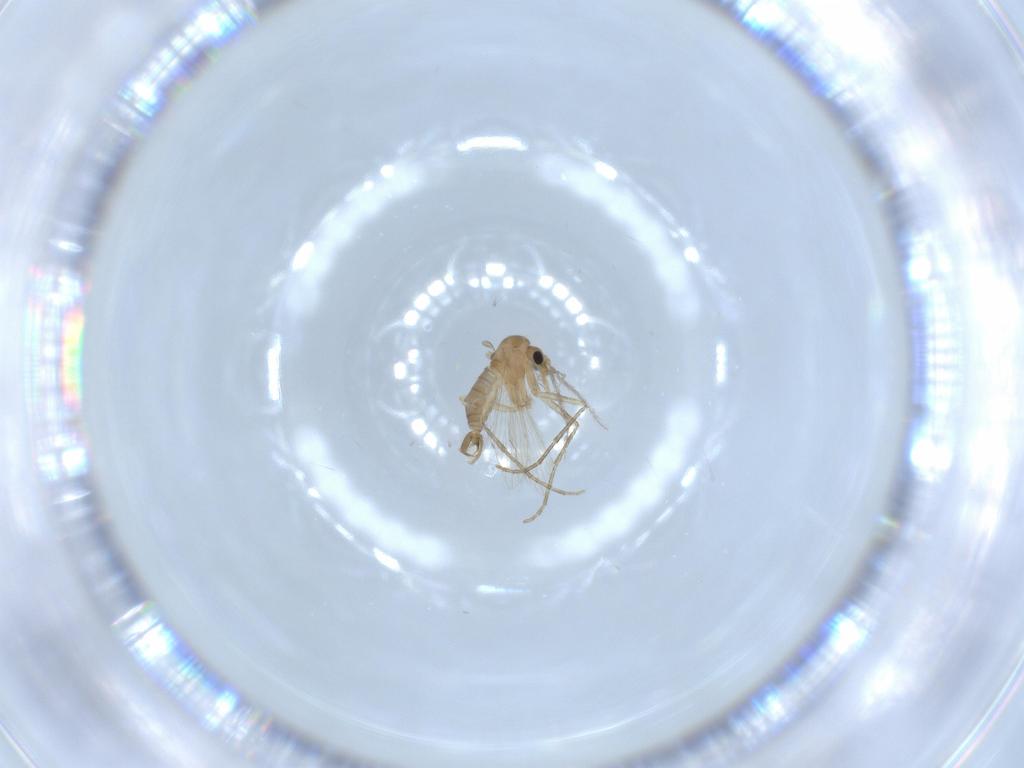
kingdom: Animalia
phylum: Arthropoda
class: Insecta
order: Diptera
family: Psychodidae
